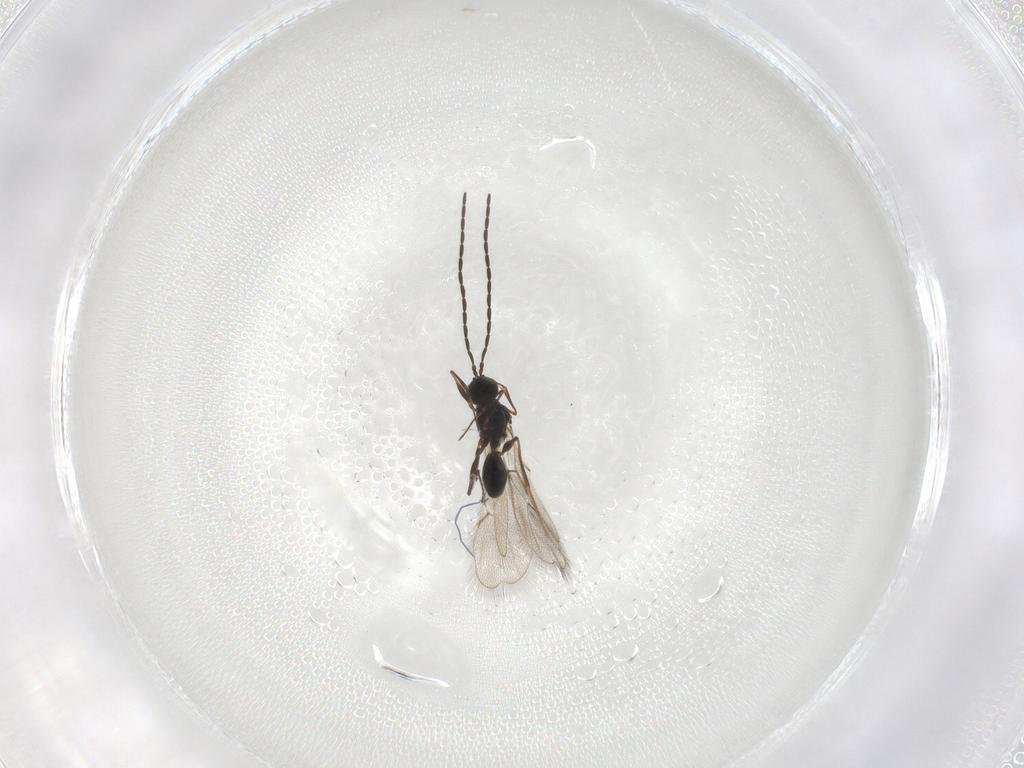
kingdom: Animalia
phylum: Arthropoda
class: Insecta
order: Hymenoptera
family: Figitidae
